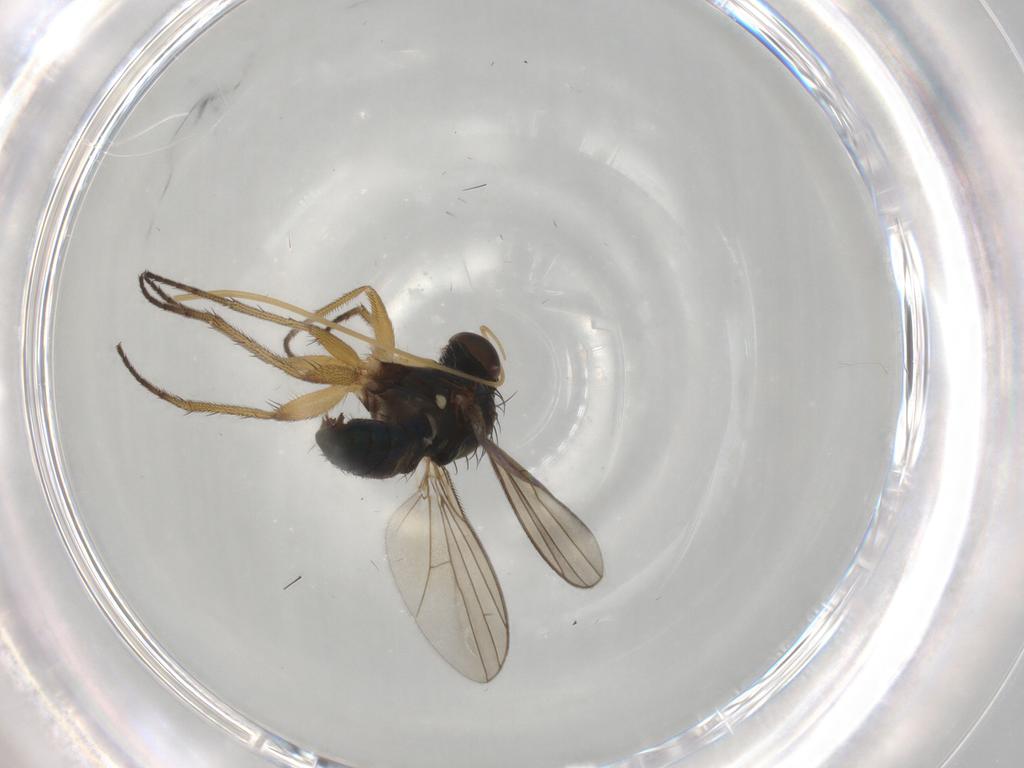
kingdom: Animalia
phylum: Arthropoda
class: Insecta
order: Diptera
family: Dolichopodidae
